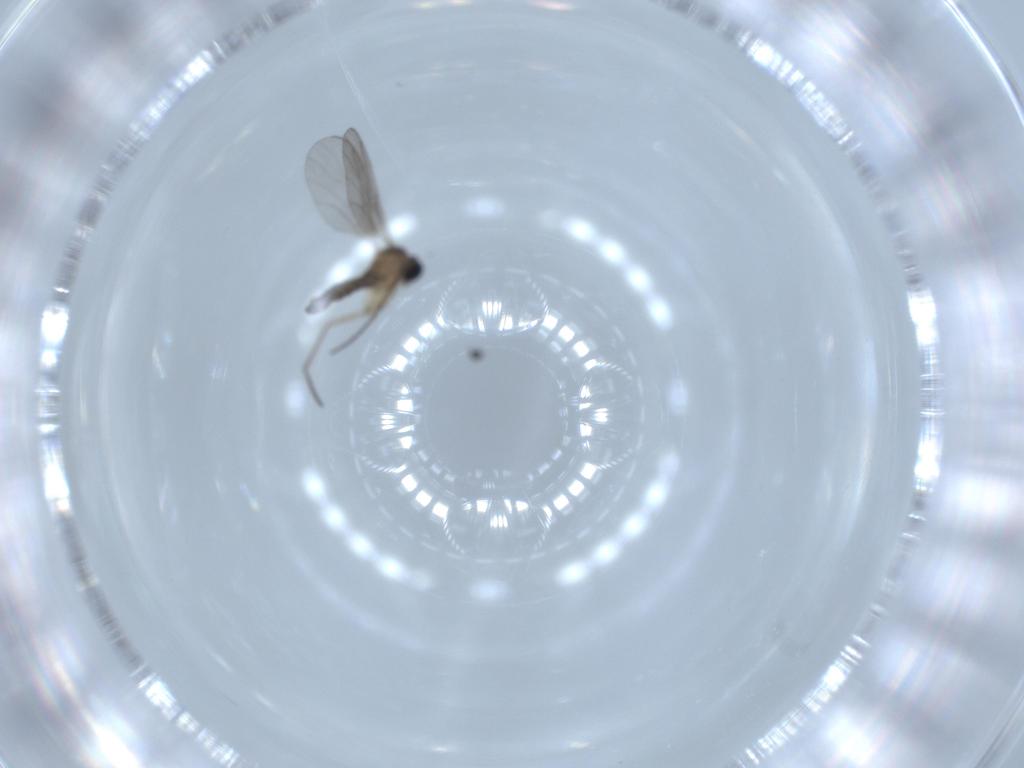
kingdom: Animalia
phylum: Arthropoda
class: Insecta
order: Diptera
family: Sciaridae
